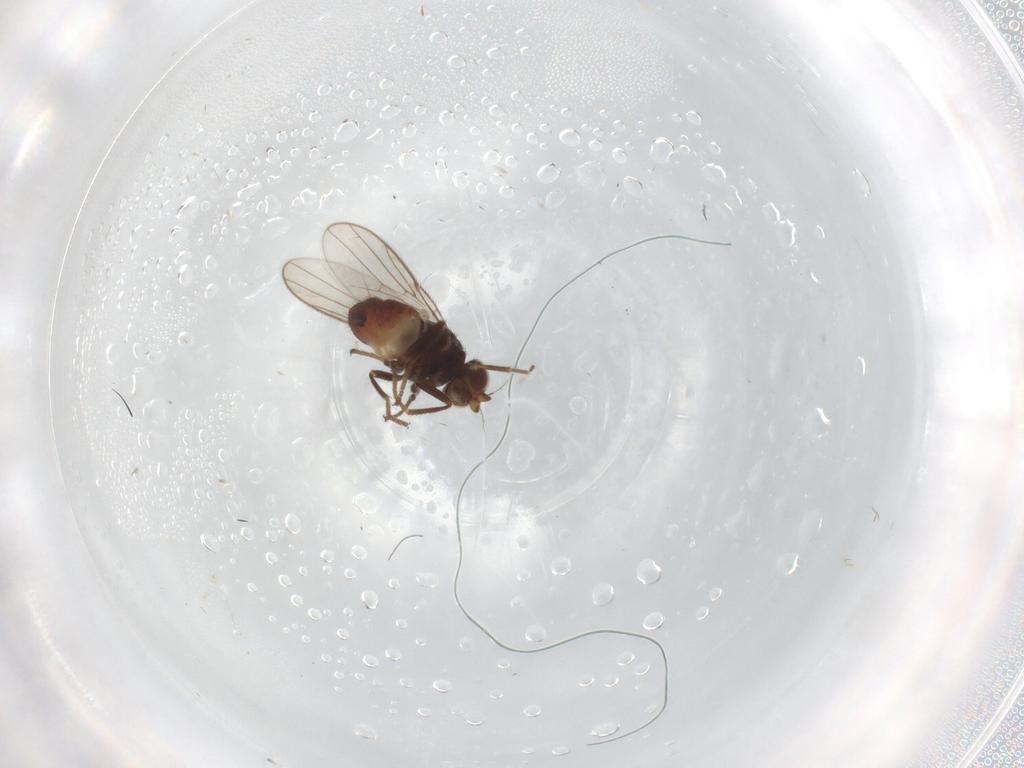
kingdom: Animalia
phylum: Arthropoda
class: Insecta
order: Diptera
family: Chloropidae
